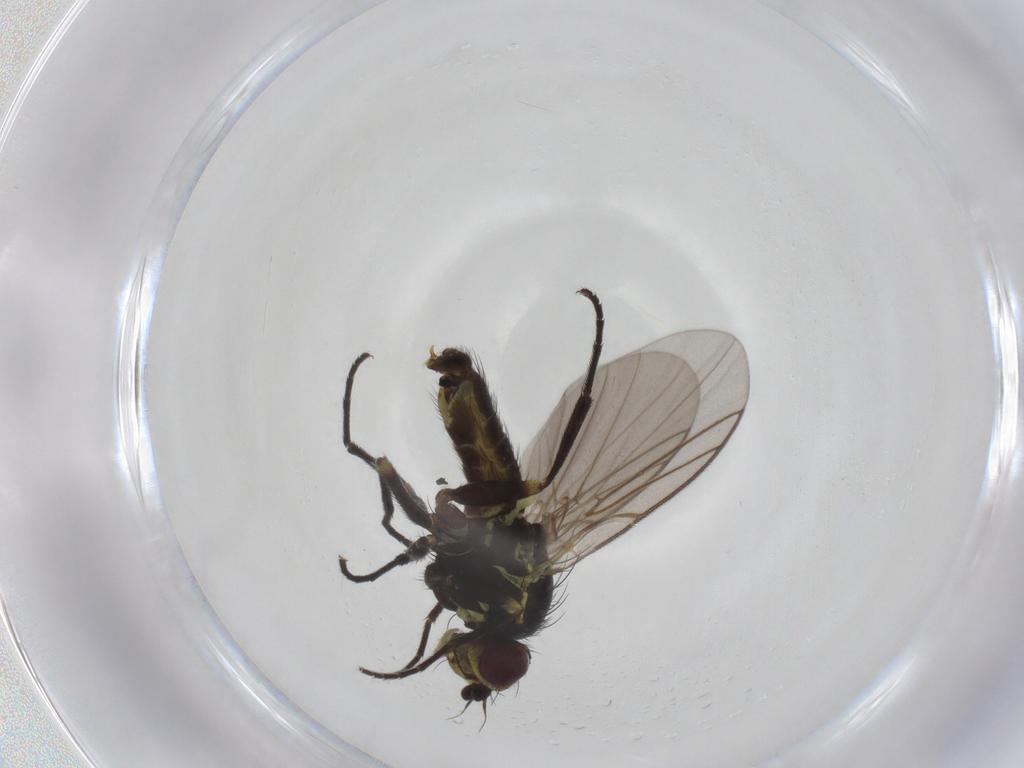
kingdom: Animalia
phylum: Arthropoda
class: Insecta
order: Diptera
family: Agromyzidae
